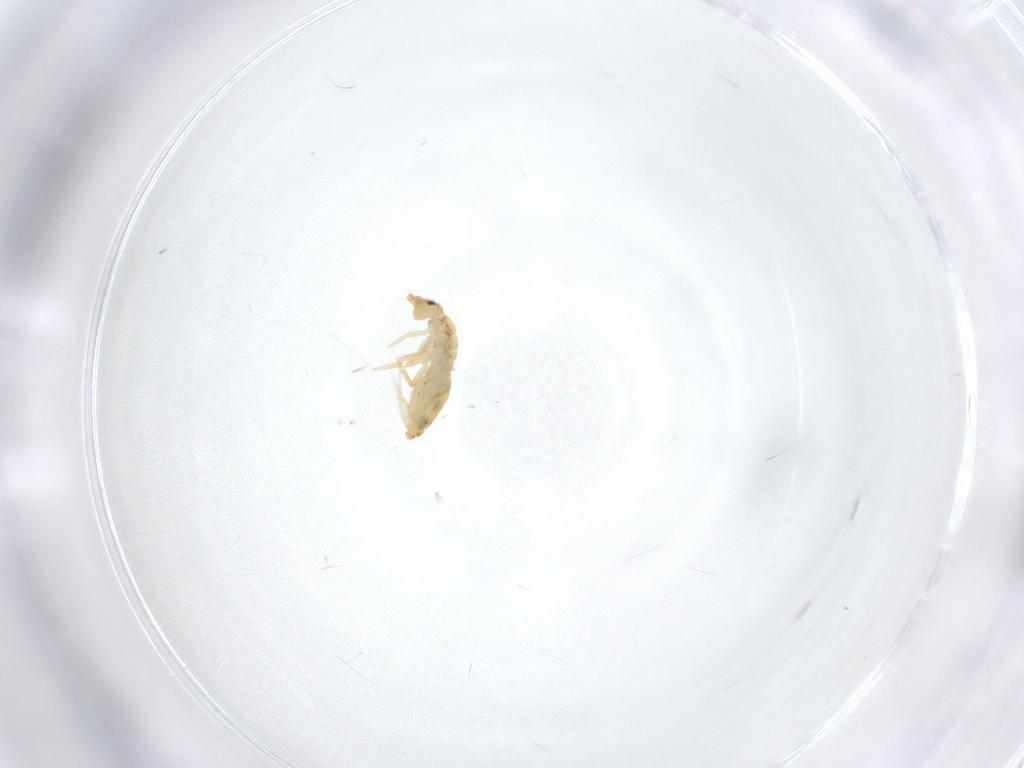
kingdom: Animalia
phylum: Arthropoda
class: Collembola
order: Entomobryomorpha
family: Entomobryidae
